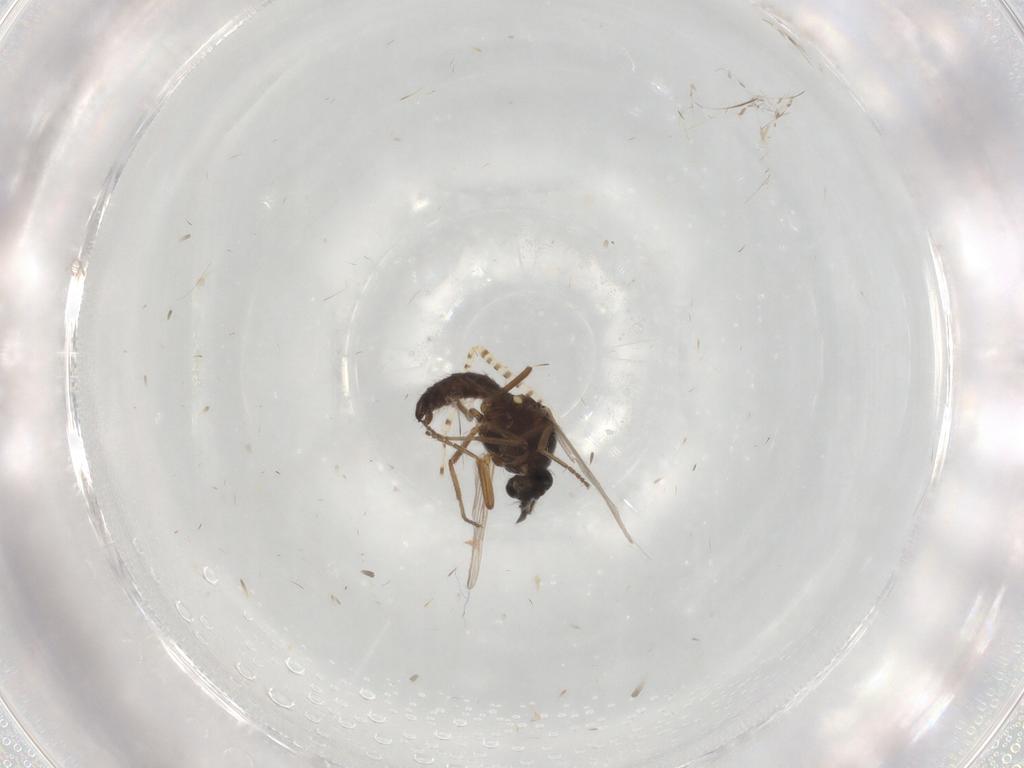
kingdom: Animalia
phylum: Arthropoda
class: Insecta
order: Diptera
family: Ceratopogonidae
